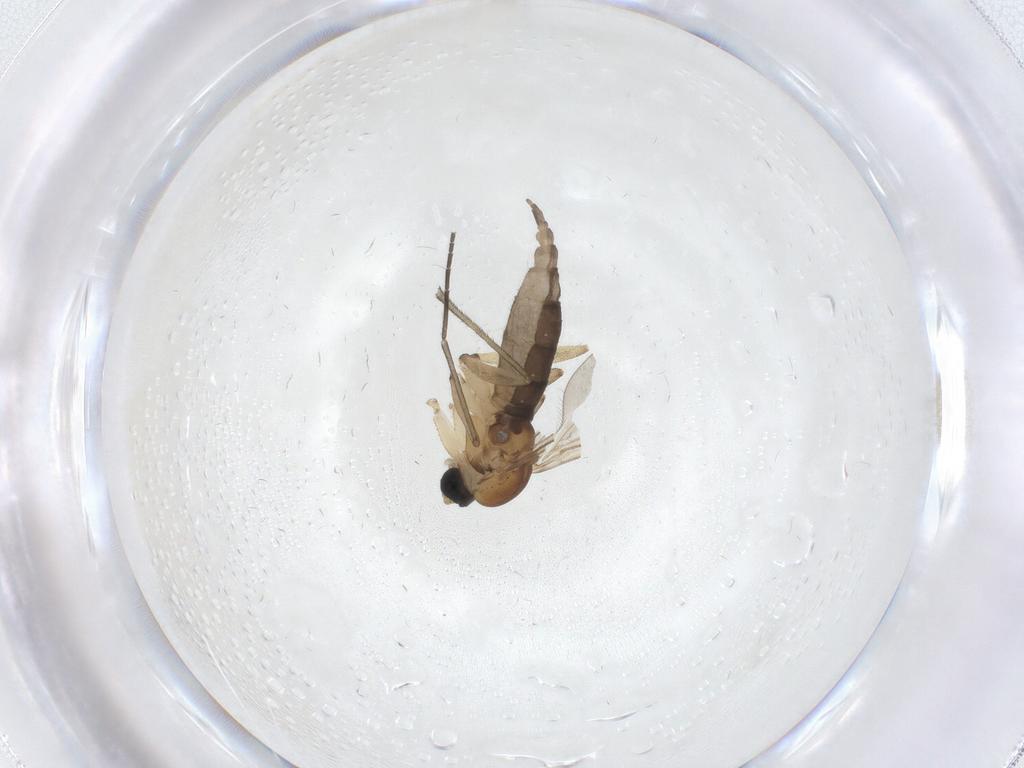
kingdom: Animalia
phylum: Arthropoda
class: Insecta
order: Diptera
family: Sciaridae
